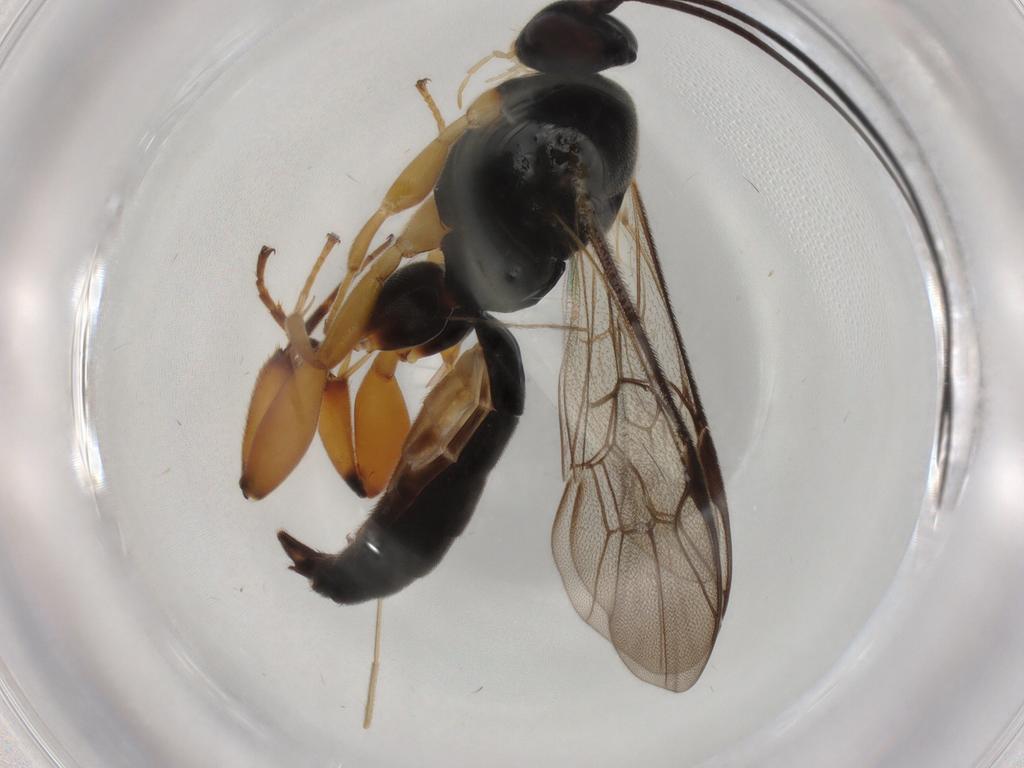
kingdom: Animalia
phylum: Arthropoda
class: Insecta
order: Hymenoptera
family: Ichneumonidae
